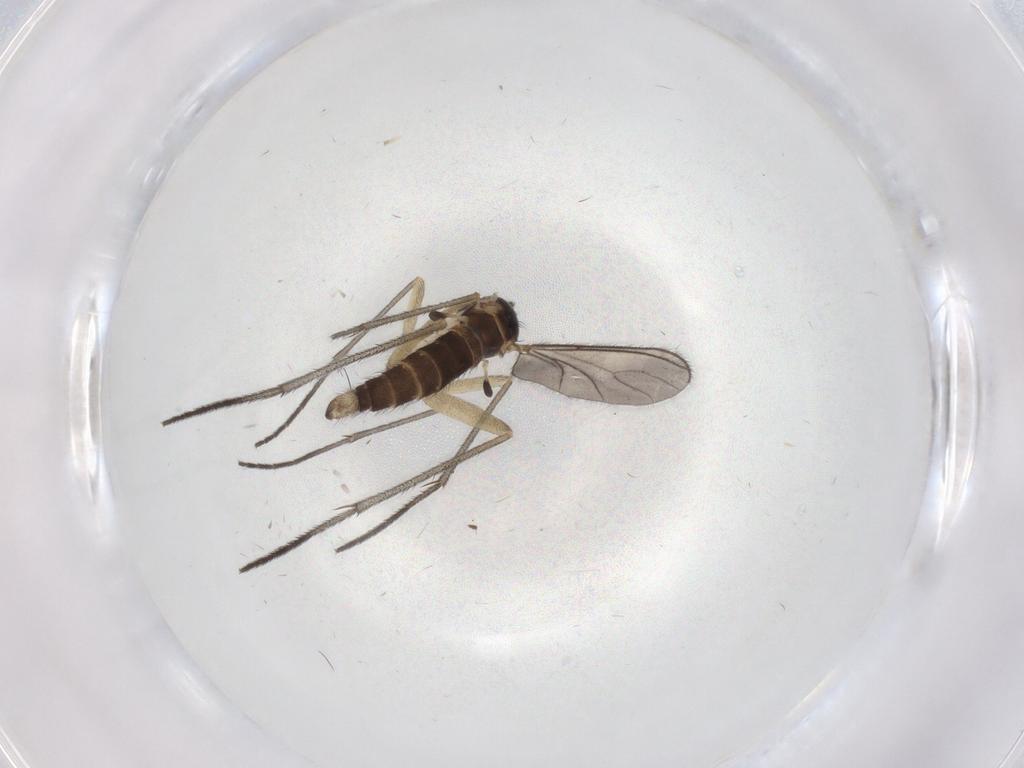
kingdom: Animalia
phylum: Arthropoda
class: Insecta
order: Diptera
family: Sciaridae
